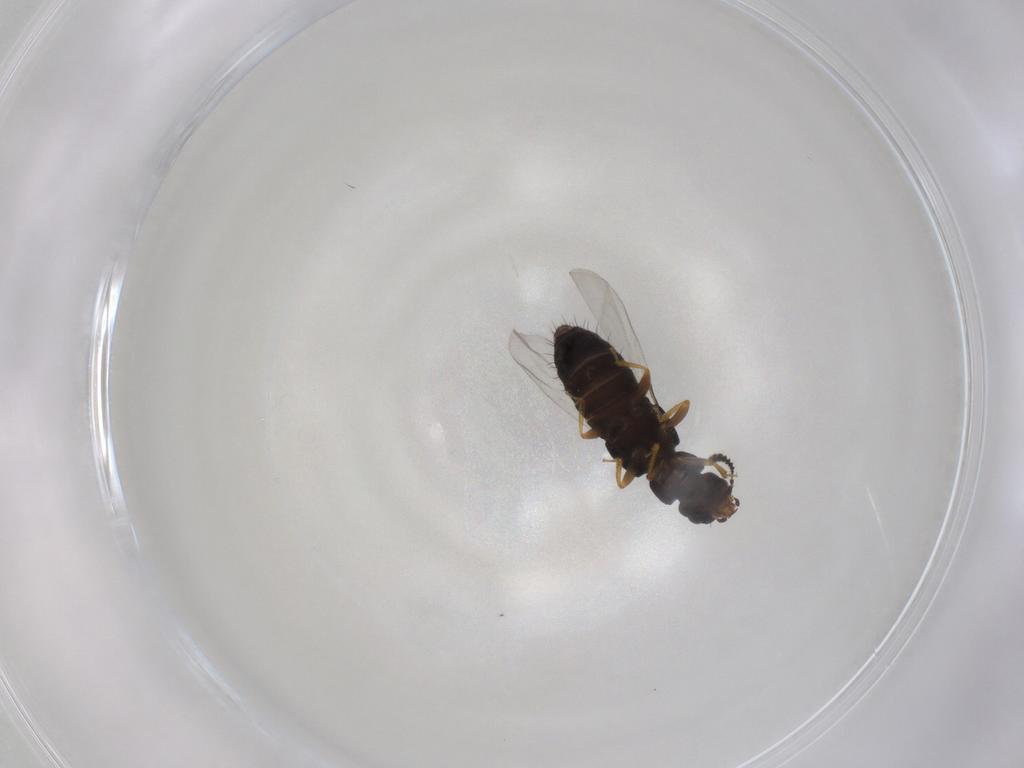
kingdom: Animalia
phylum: Arthropoda
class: Insecta
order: Coleoptera
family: Staphylinidae
